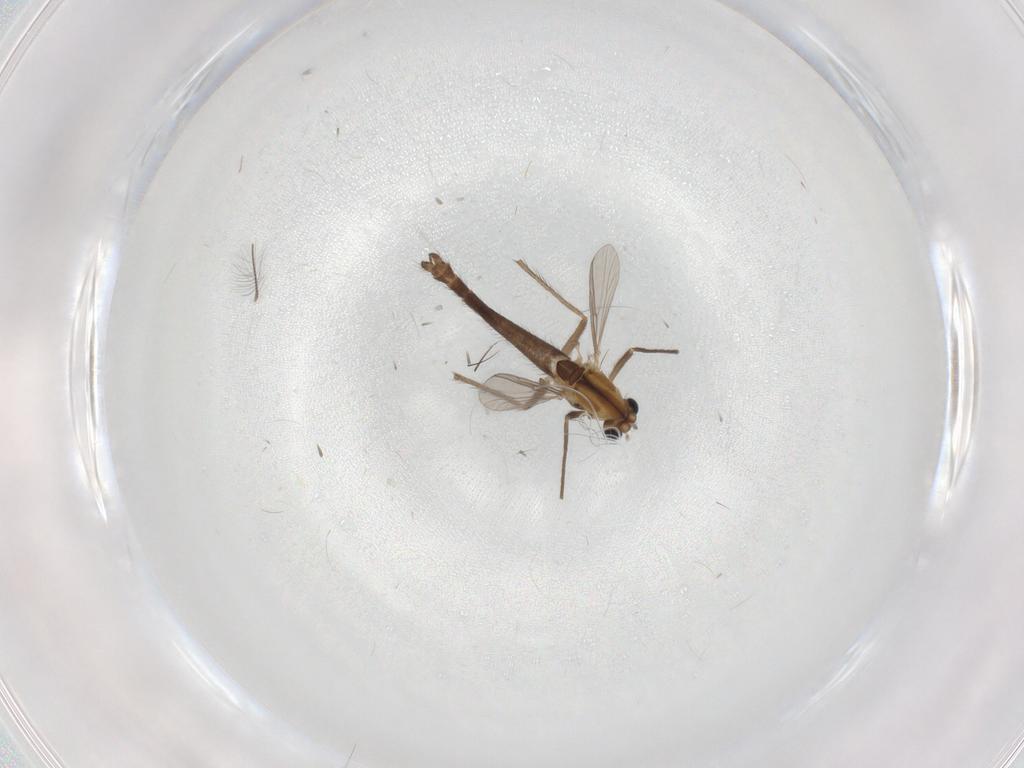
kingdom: Animalia
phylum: Arthropoda
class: Insecta
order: Diptera
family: Chironomidae
